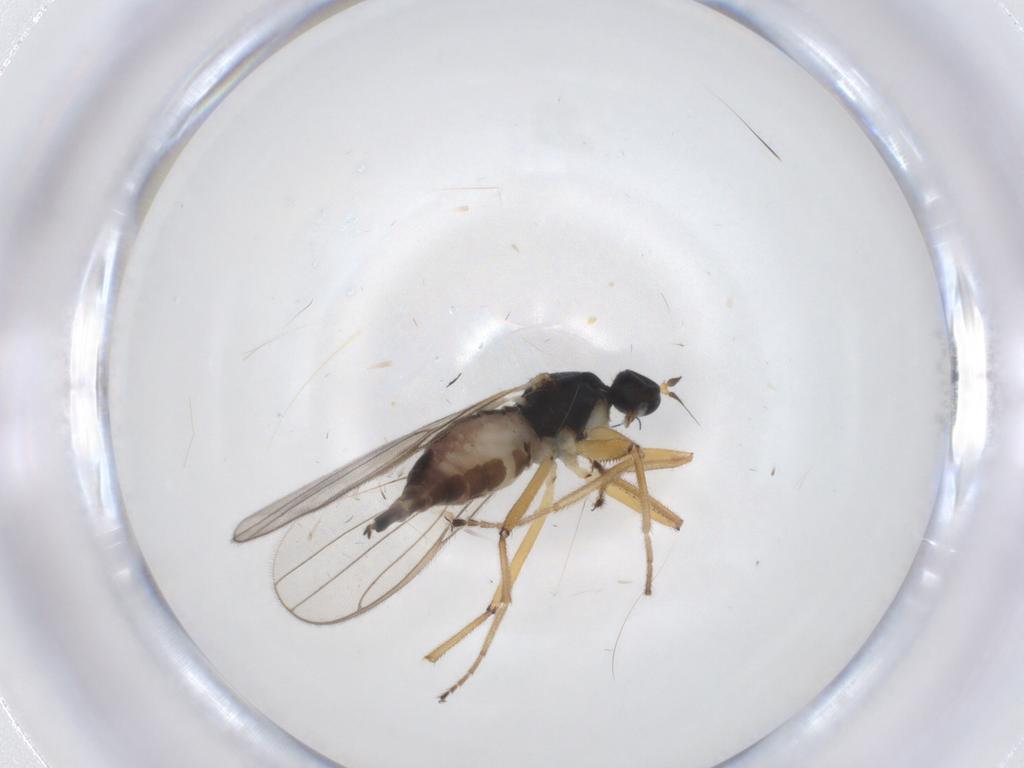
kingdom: Animalia
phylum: Arthropoda
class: Insecta
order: Diptera
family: Hybotidae
